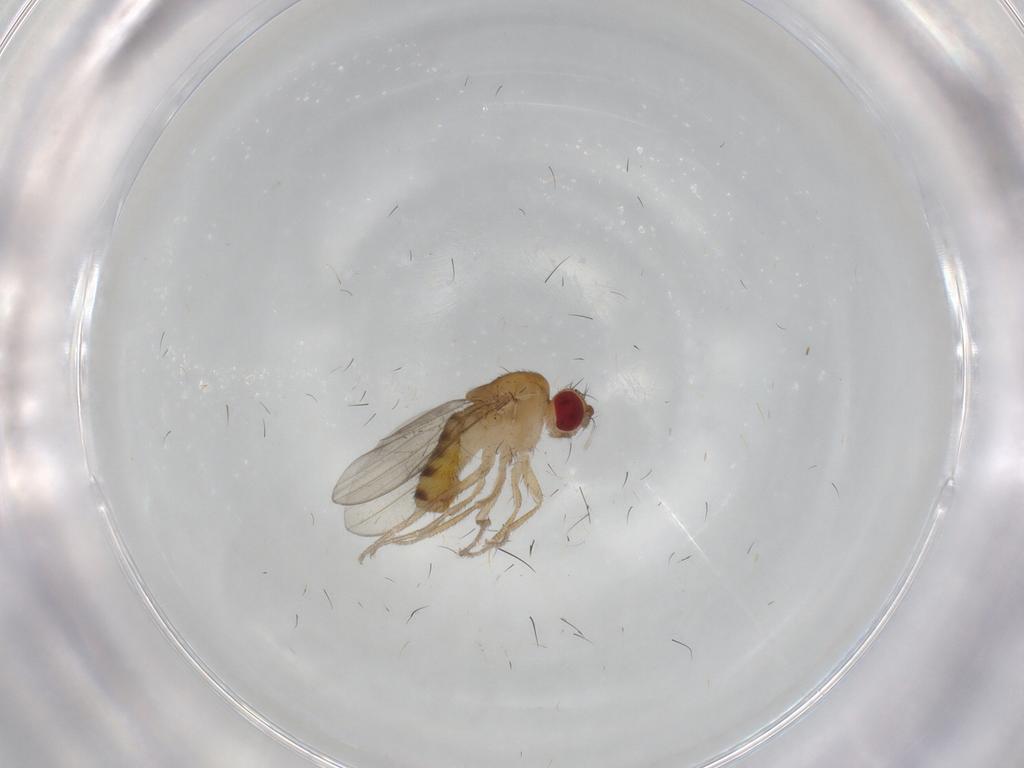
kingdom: Animalia
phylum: Arthropoda
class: Insecta
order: Diptera
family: Drosophilidae
